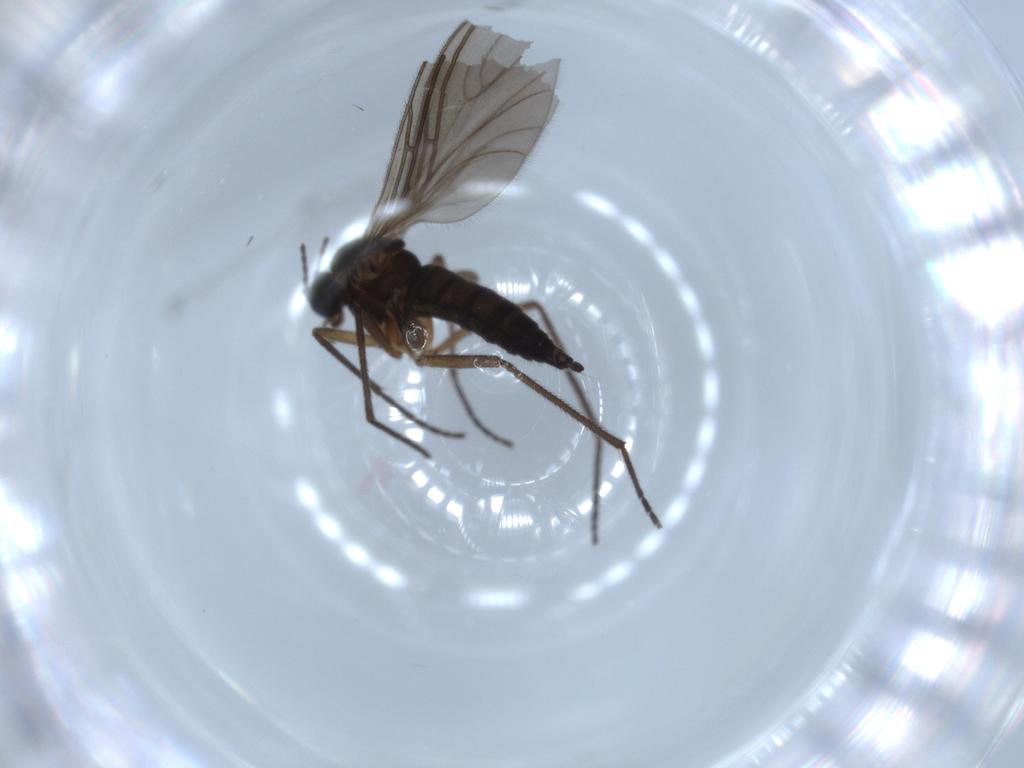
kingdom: Animalia
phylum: Arthropoda
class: Insecta
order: Diptera
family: Sciaridae
